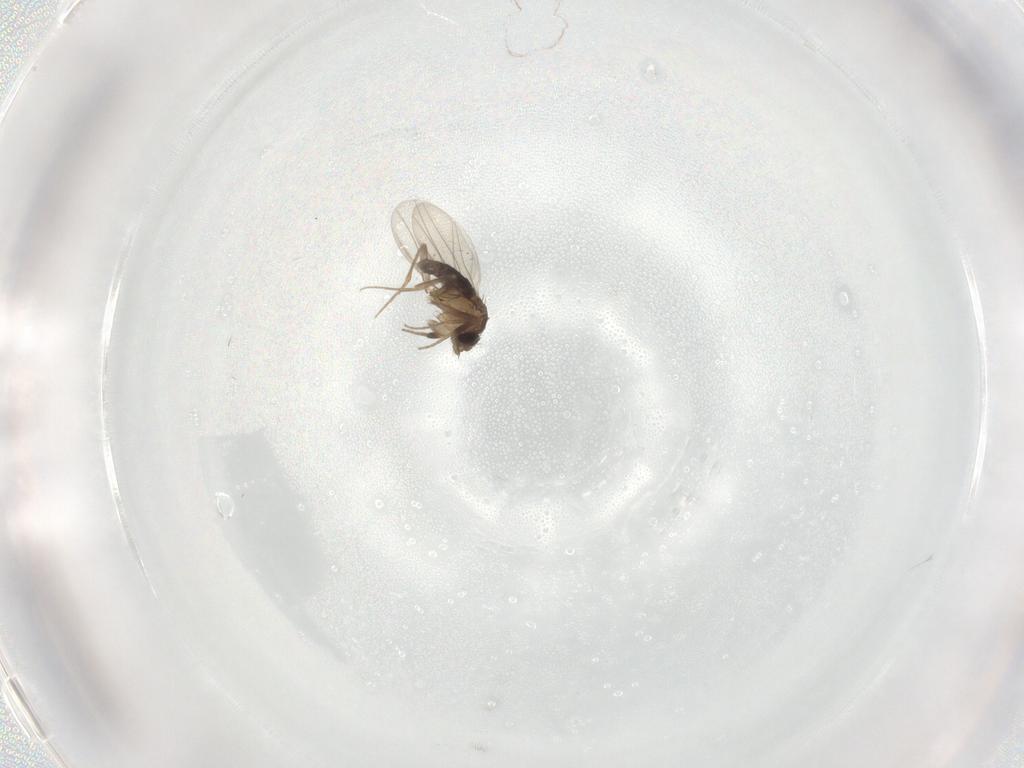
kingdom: Animalia
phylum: Arthropoda
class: Insecta
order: Diptera
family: Phoridae
